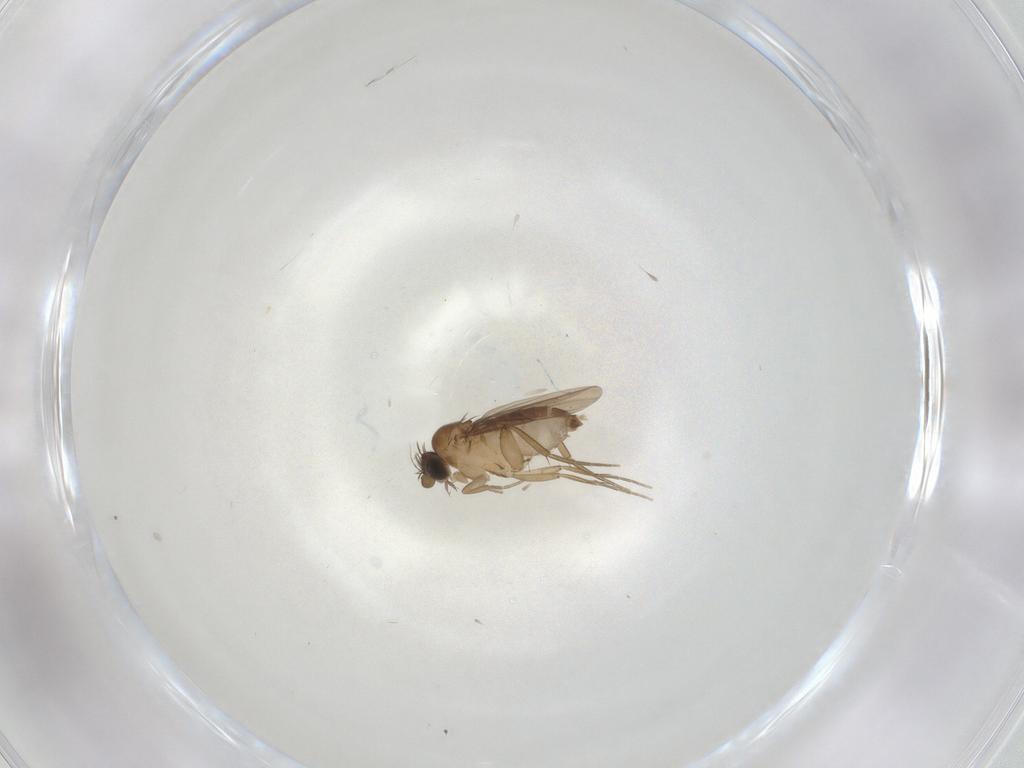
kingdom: Animalia
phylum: Arthropoda
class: Insecta
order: Diptera
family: Phoridae
